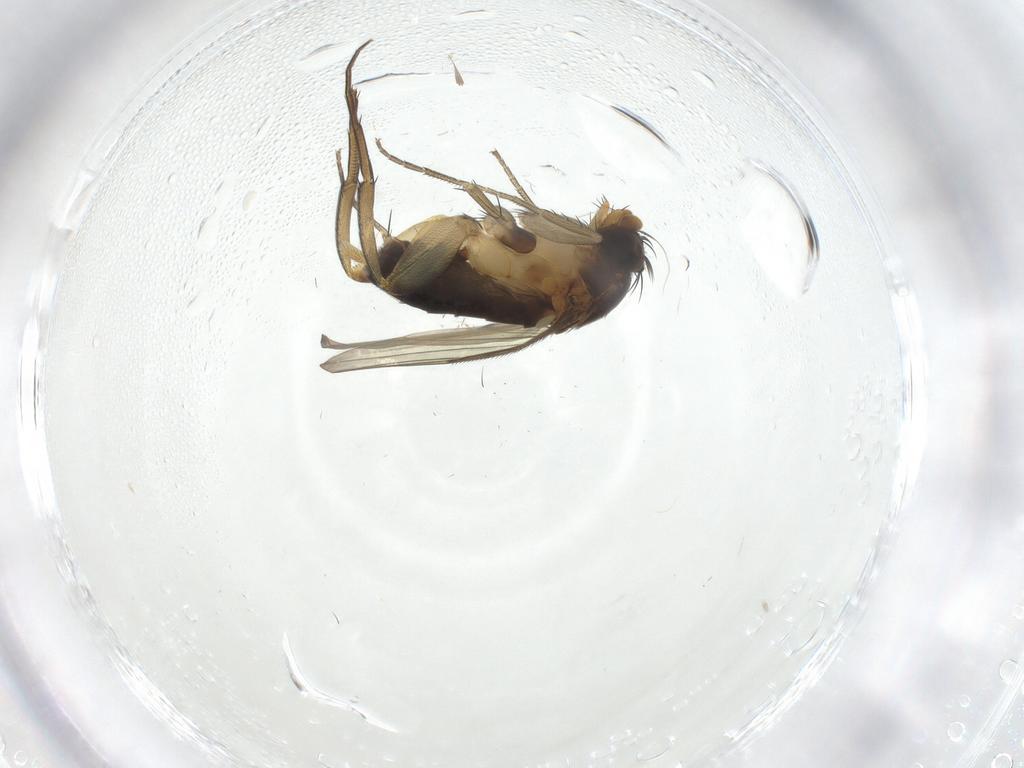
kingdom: Animalia
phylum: Arthropoda
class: Insecta
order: Diptera
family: Phoridae
